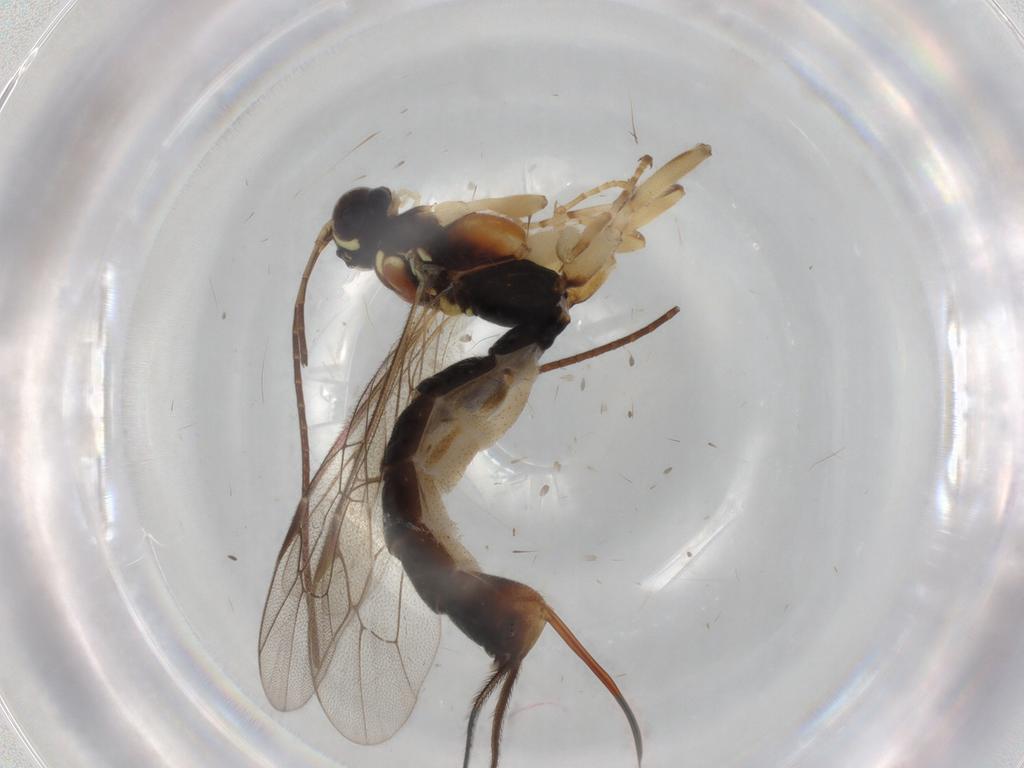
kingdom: Animalia
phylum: Arthropoda
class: Insecta
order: Hymenoptera
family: Ichneumonidae
